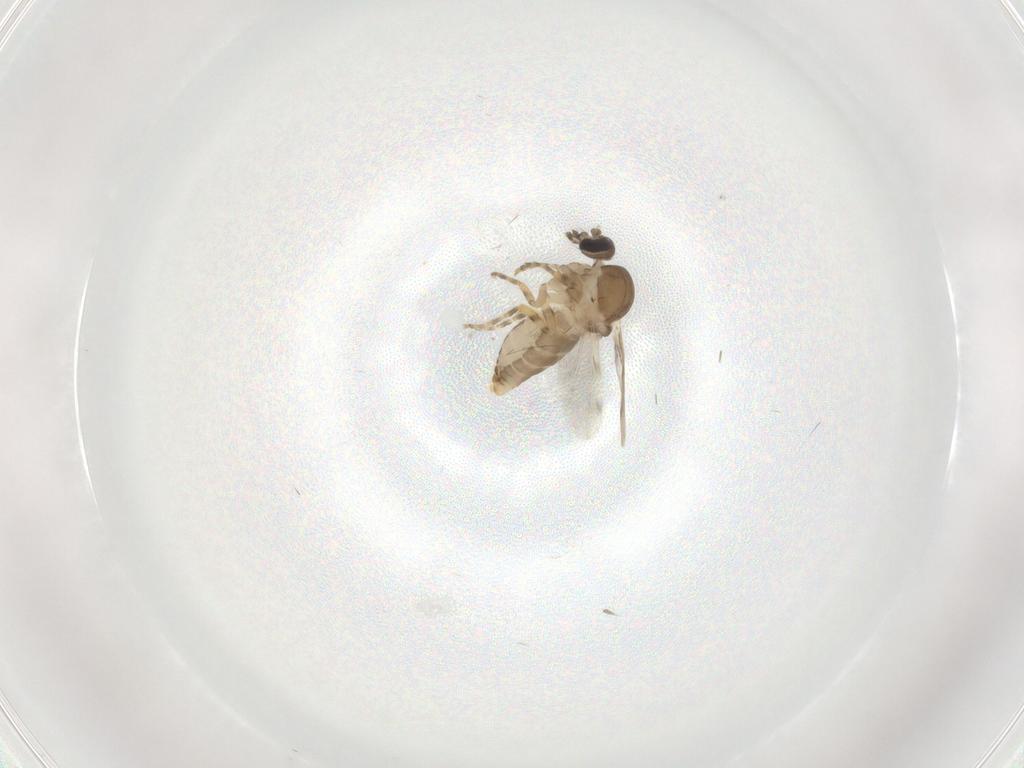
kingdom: Animalia
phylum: Arthropoda
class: Insecta
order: Diptera
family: Ceratopogonidae
